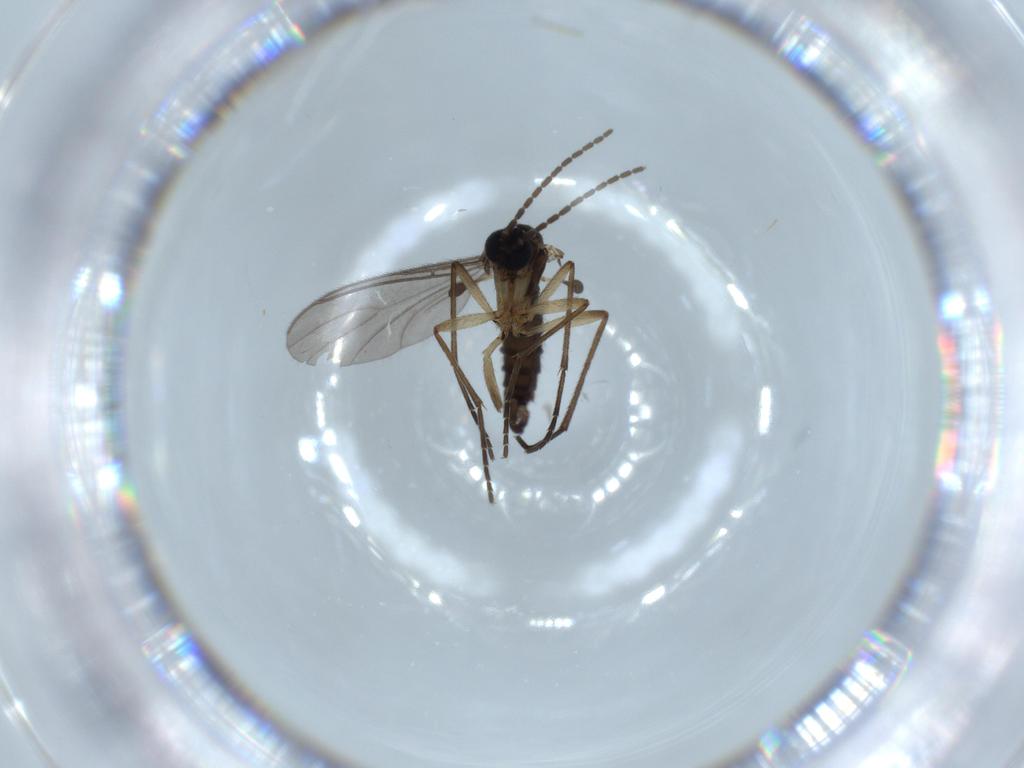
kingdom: Animalia
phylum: Arthropoda
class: Insecta
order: Diptera
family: Sciaridae
